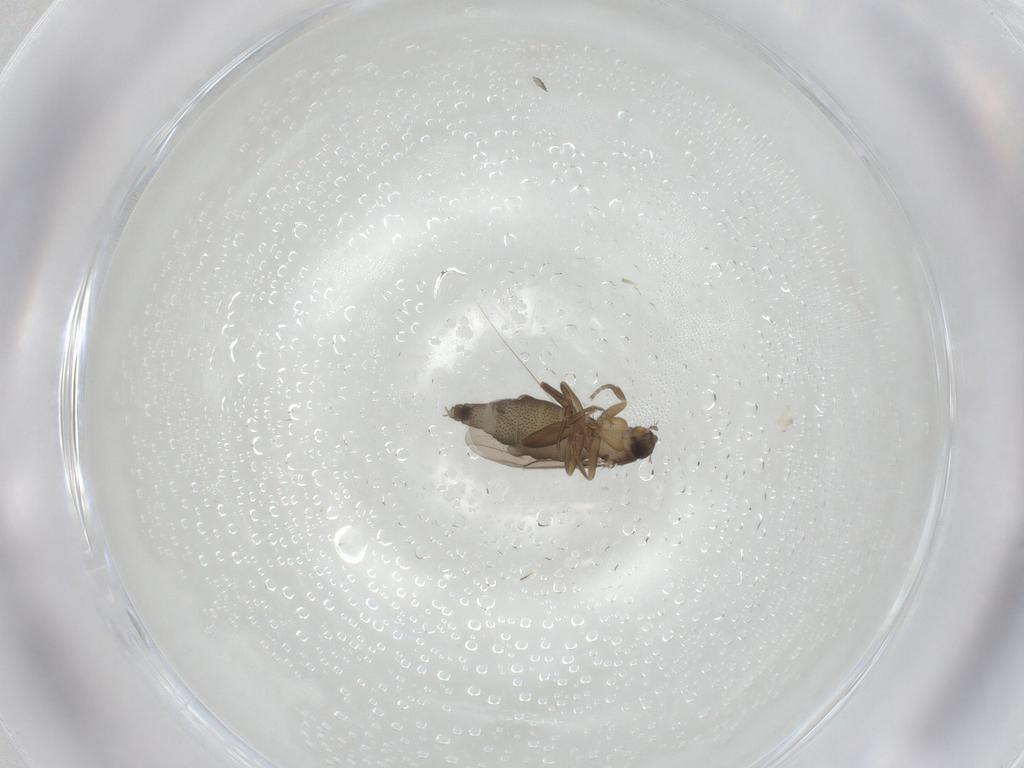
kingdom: Animalia
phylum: Arthropoda
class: Insecta
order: Diptera
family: Phoridae
